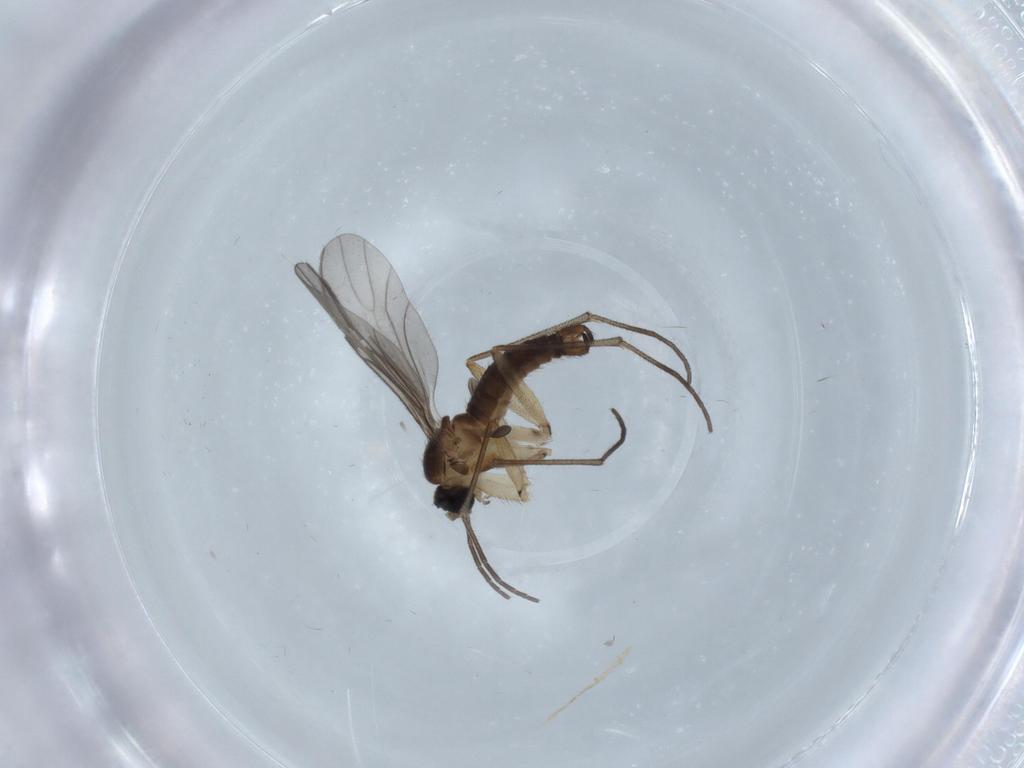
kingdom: Animalia
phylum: Arthropoda
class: Insecta
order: Diptera
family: Sciaridae
